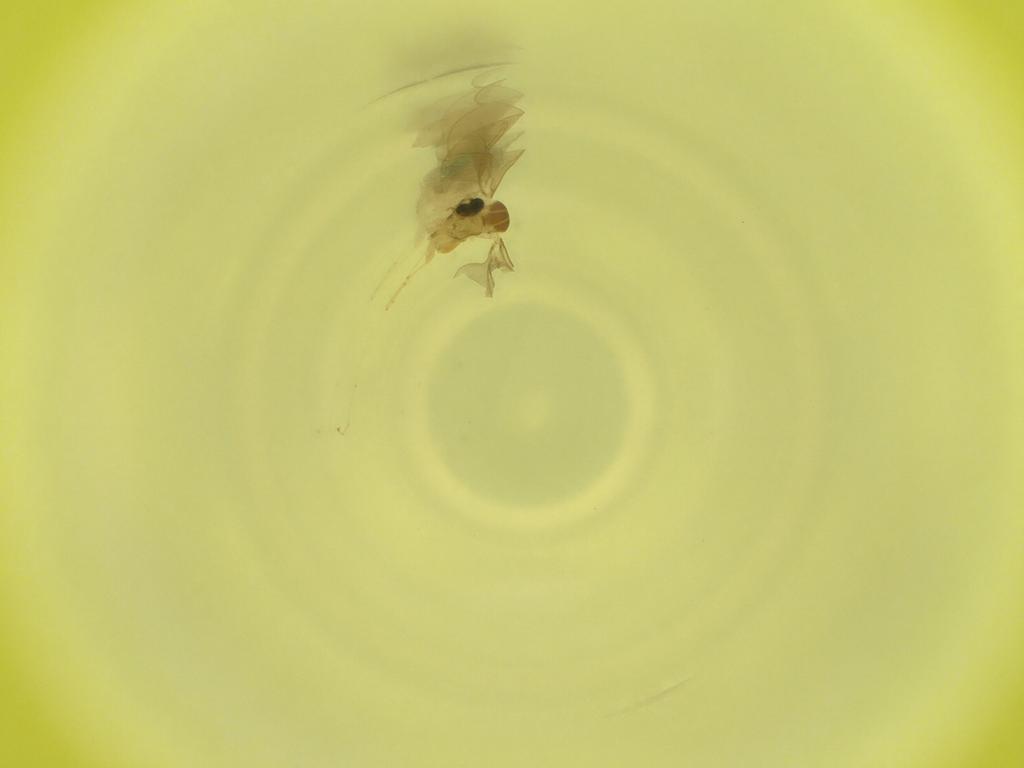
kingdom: Animalia
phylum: Arthropoda
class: Insecta
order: Diptera
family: Cecidomyiidae
